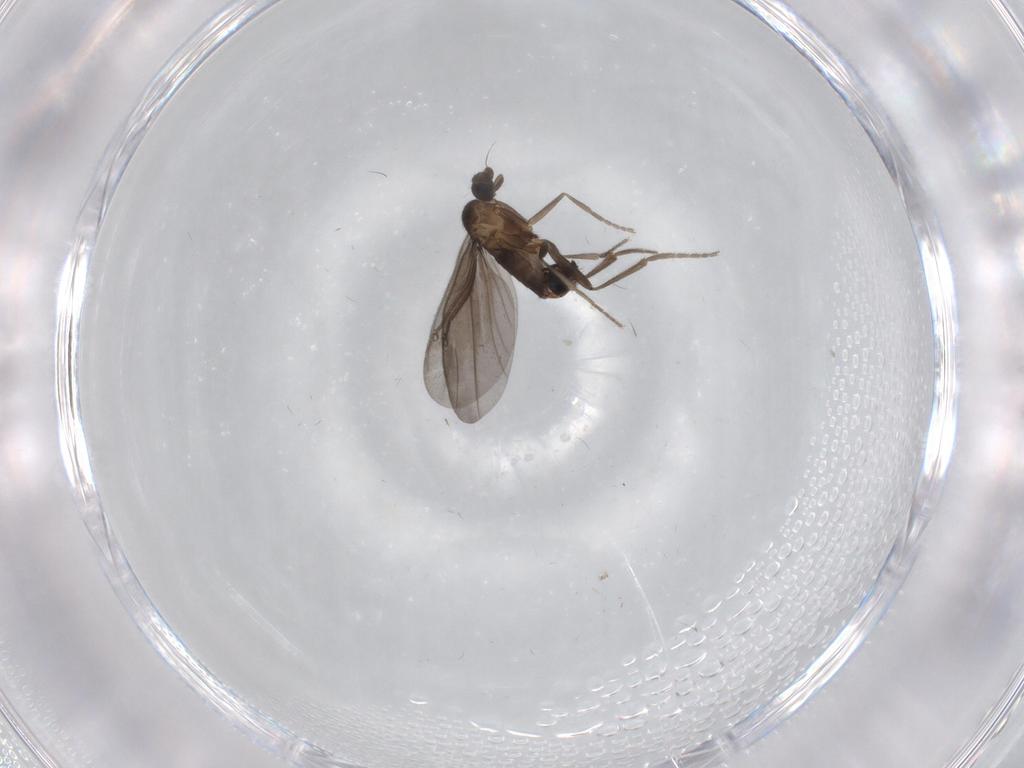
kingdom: Animalia
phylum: Arthropoda
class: Insecta
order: Diptera
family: Phoridae
